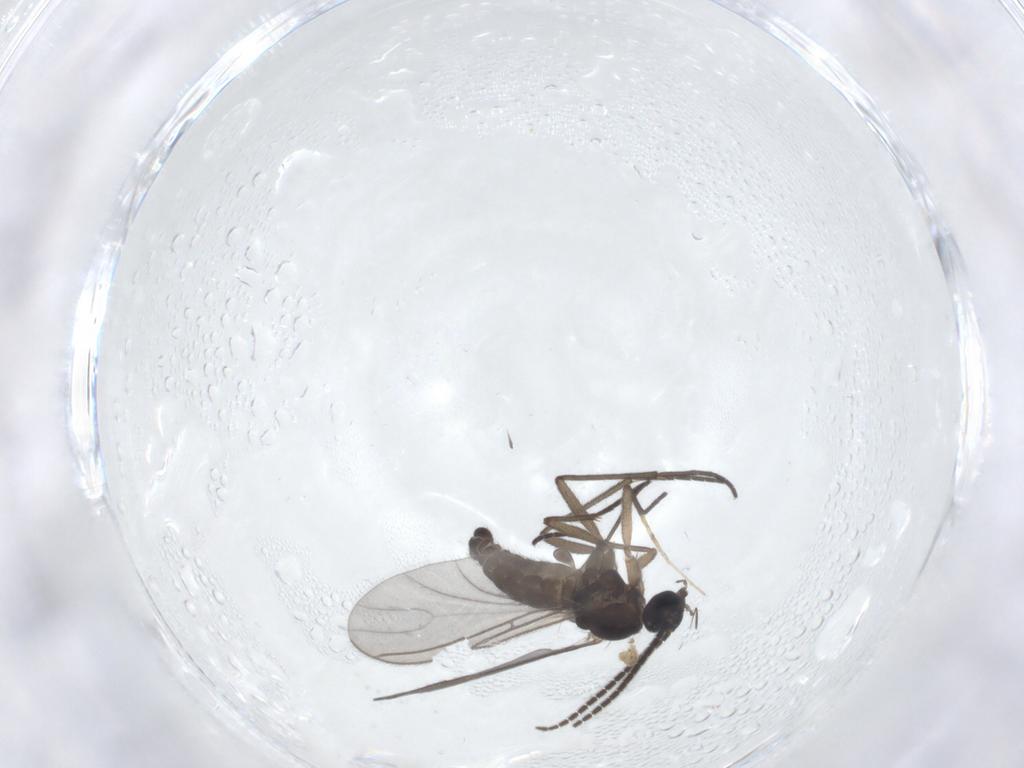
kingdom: Animalia
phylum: Arthropoda
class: Insecta
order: Diptera
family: Sciaridae
